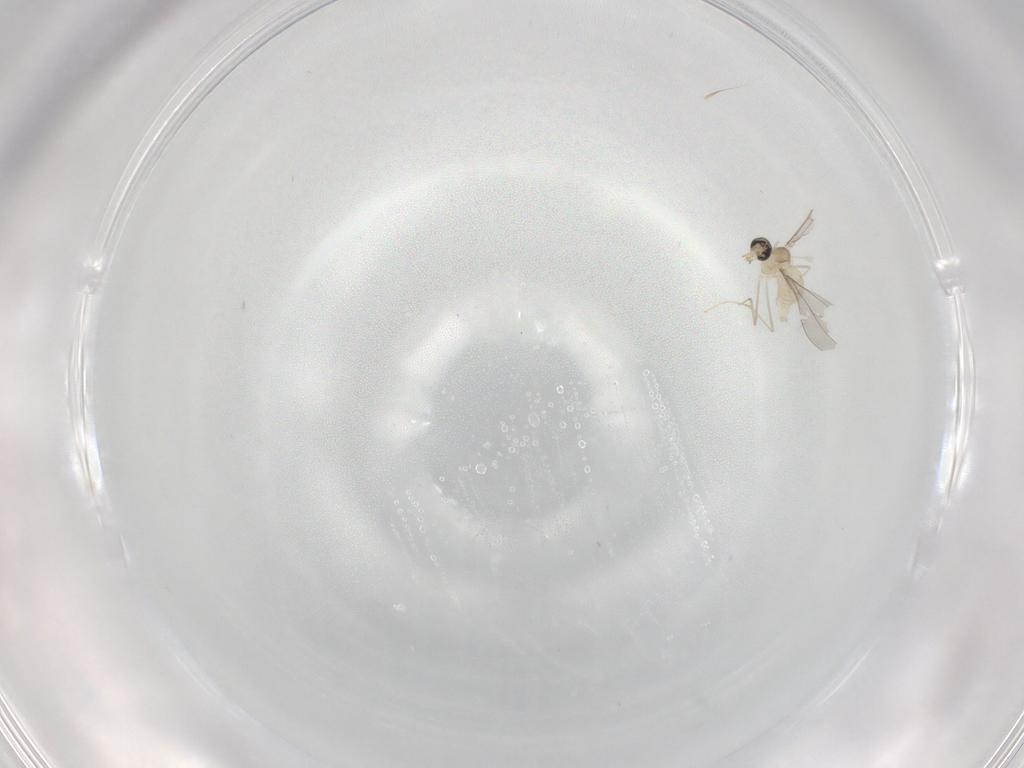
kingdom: Animalia
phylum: Arthropoda
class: Insecta
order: Diptera
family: Cecidomyiidae
